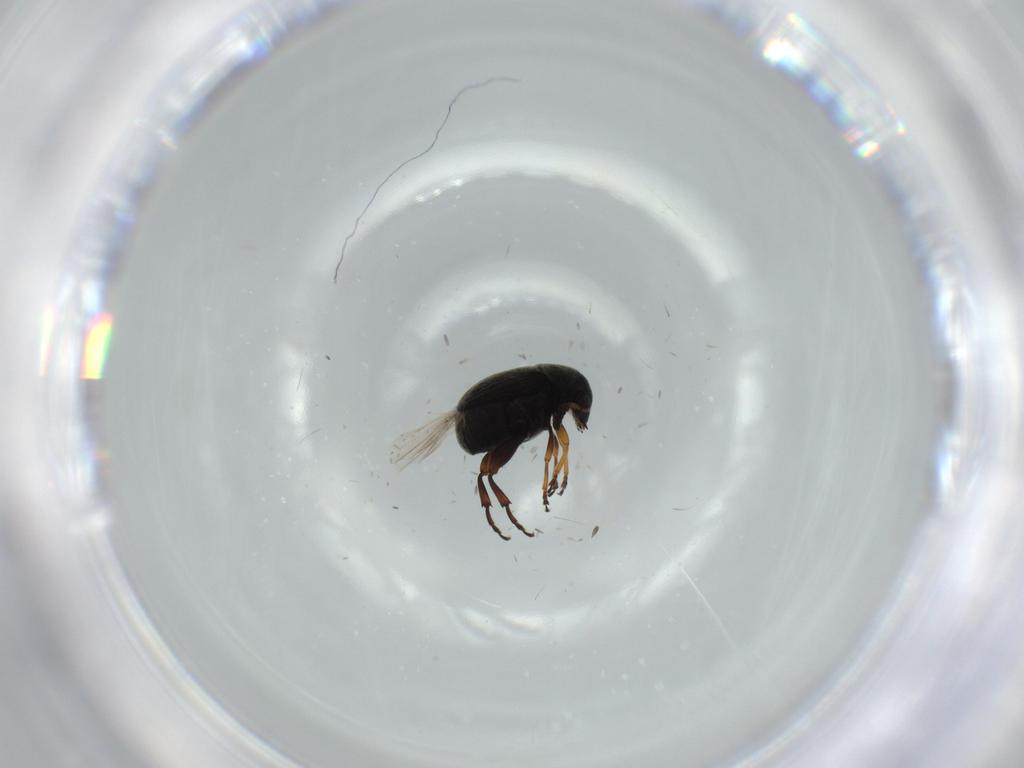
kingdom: Animalia
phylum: Arthropoda
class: Insecta
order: Coleoptera
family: Chrysomelidae
